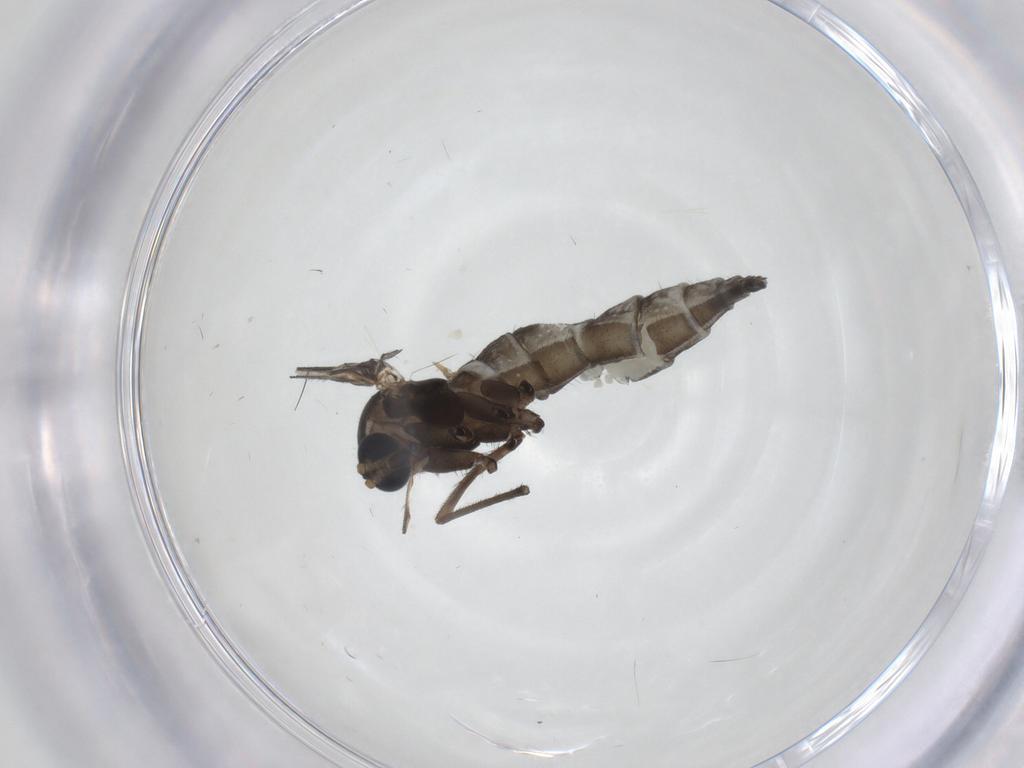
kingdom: Animalia
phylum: Arthropoda
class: Insecta
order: Diptera
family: Sciaridae
